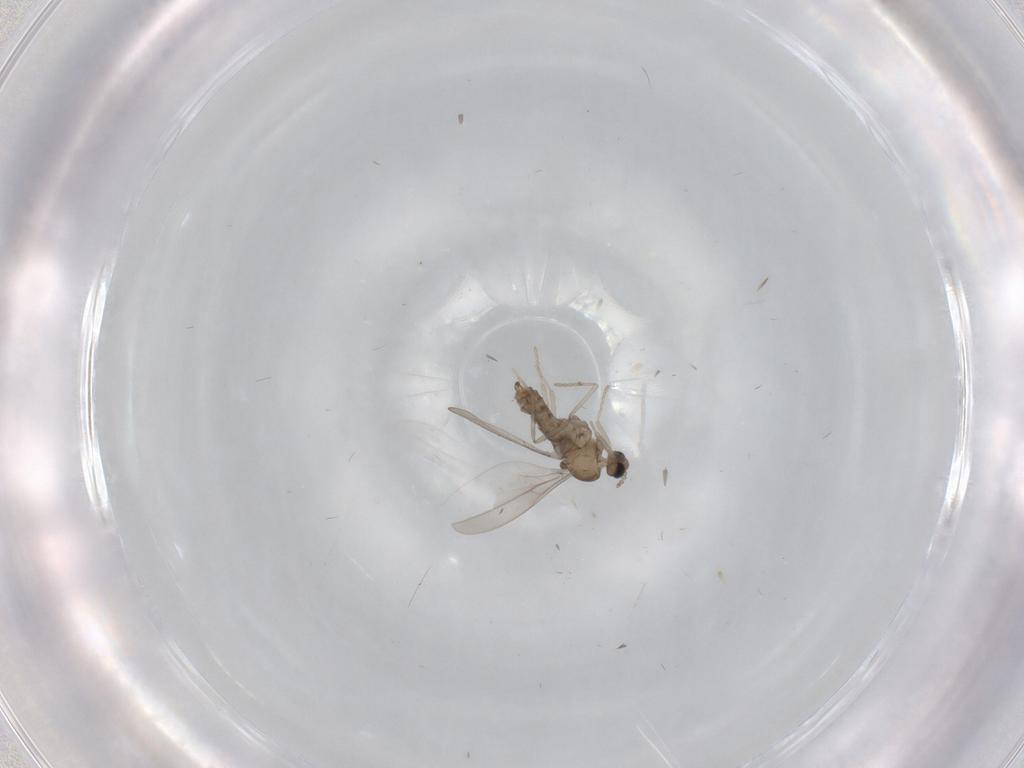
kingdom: Animalia
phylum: Arthropoda
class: Insecta
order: Diptera
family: Cecidomyiidae
